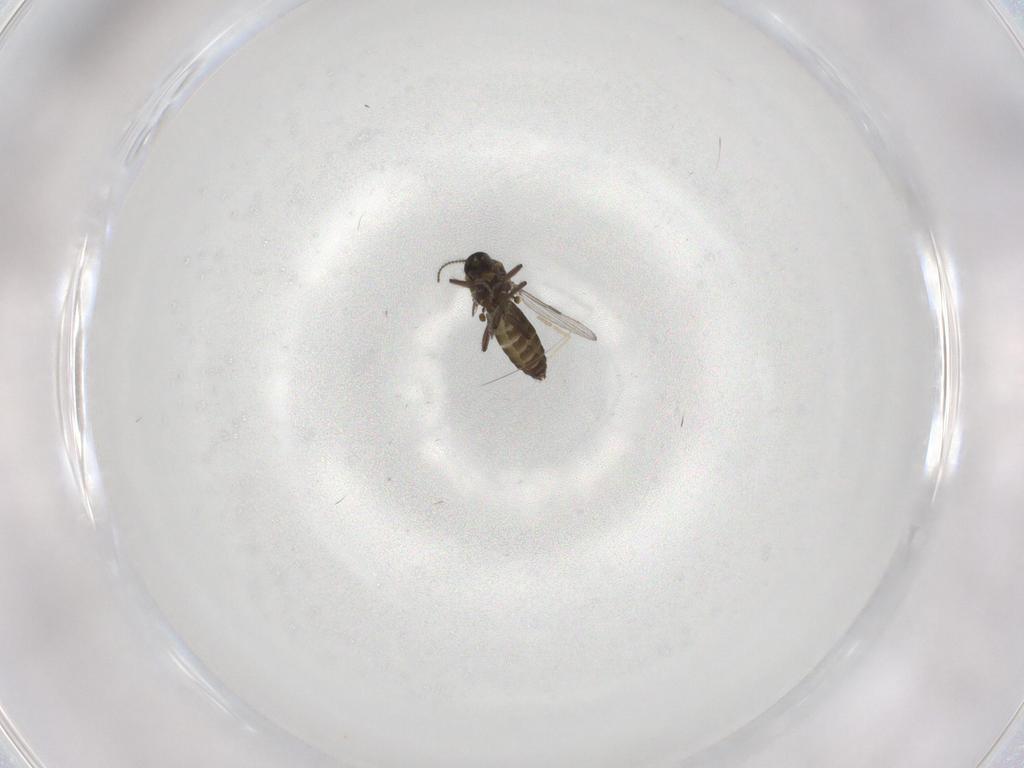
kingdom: Animalia
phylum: Arthropoda
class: Insecta
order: Diptera
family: Ceratopogonidae
